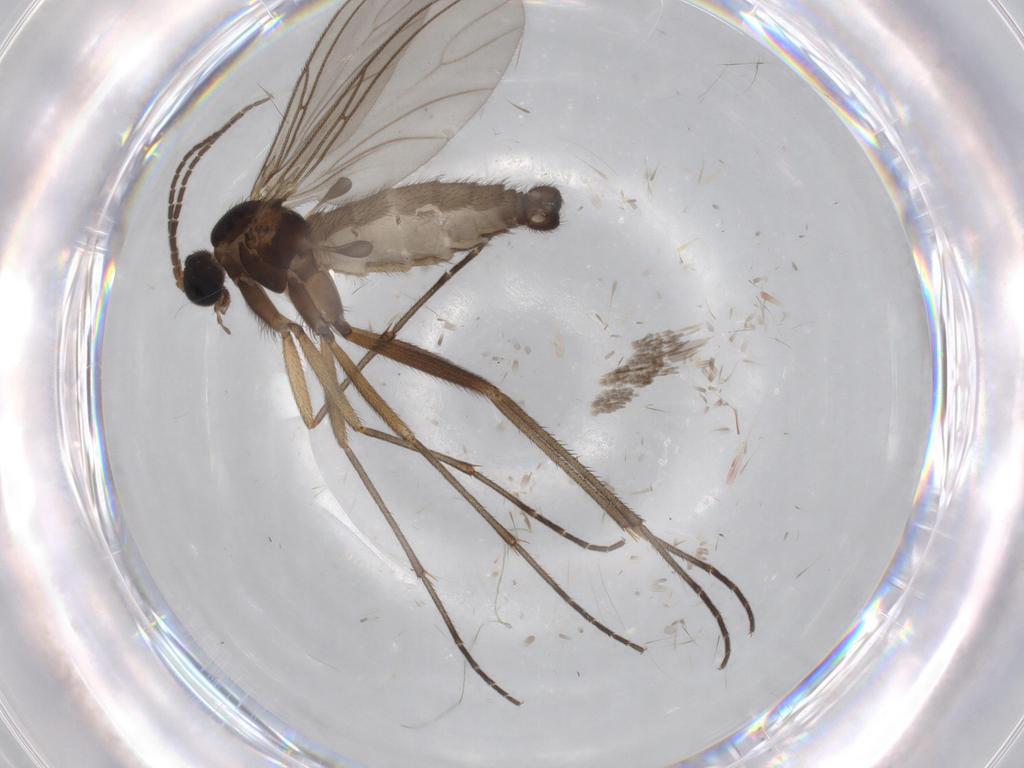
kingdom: Animalia
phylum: Arthropoda
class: Insecta
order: Diptera
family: Sciaridae
